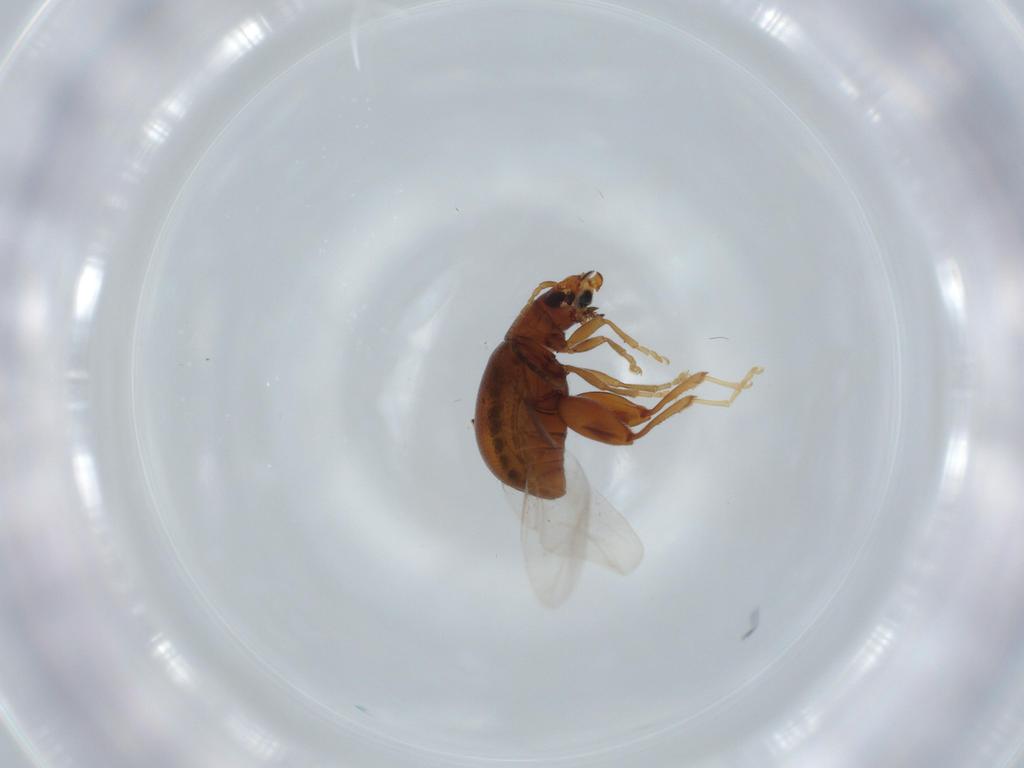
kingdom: Animalia
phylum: Arthropoda
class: Insecta
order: Coleoptera
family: Chrysomelidae
